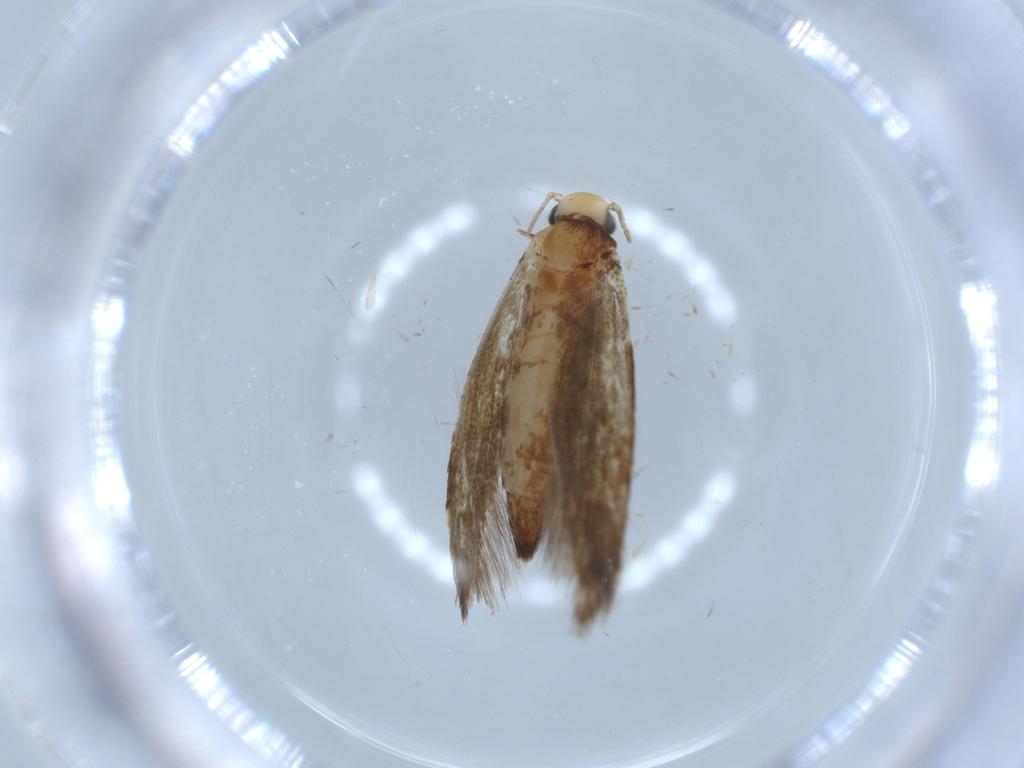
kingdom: Animalia
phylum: Arthropoda
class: Insecta
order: Lepidoptera
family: Tineidae
